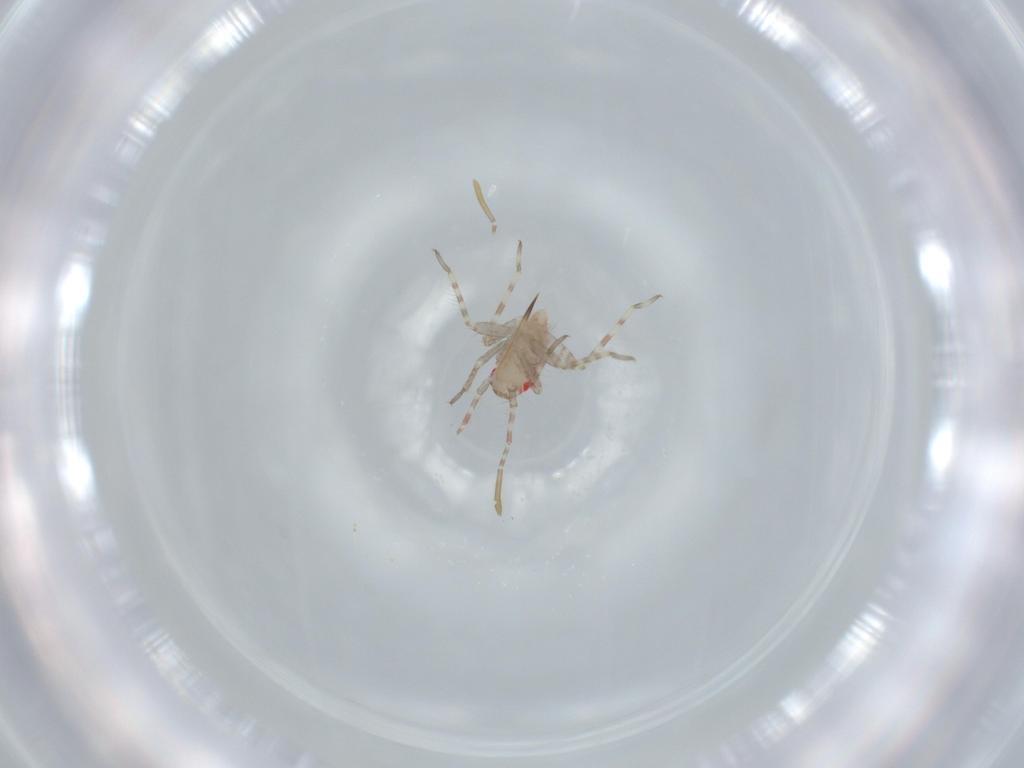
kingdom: Animalia
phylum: Arthropoda
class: Insecta
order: Hemiptera
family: Miridae
